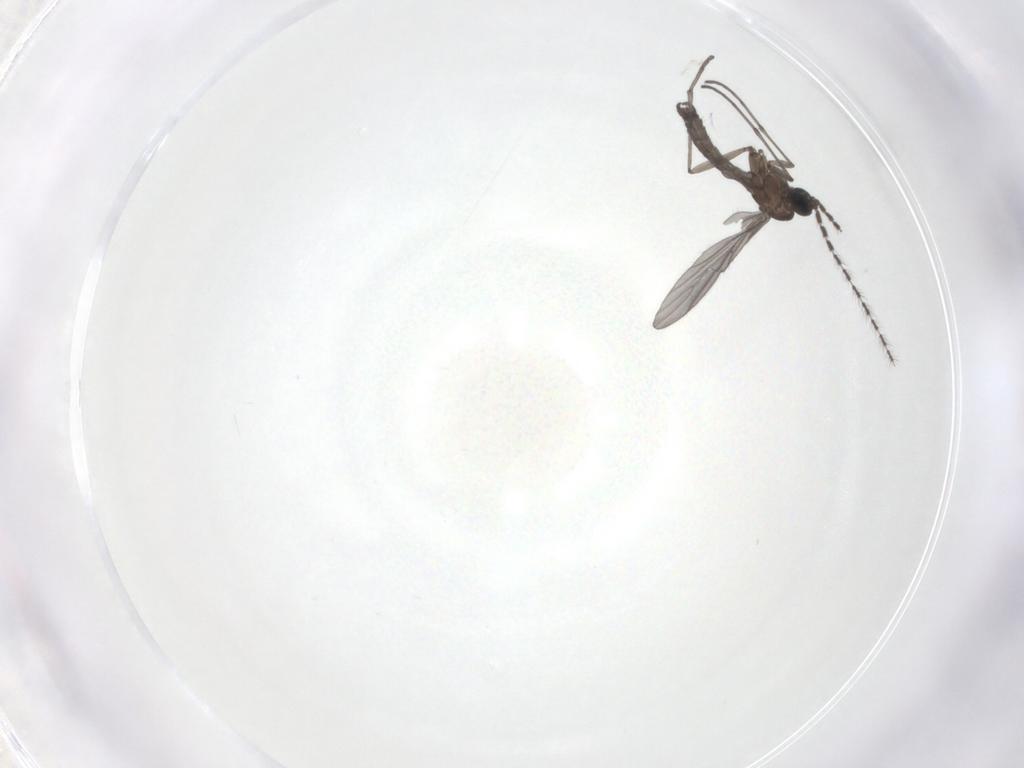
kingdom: Animalia
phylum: Arthropoda
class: Insecta
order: Diptera
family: Sciaridae
